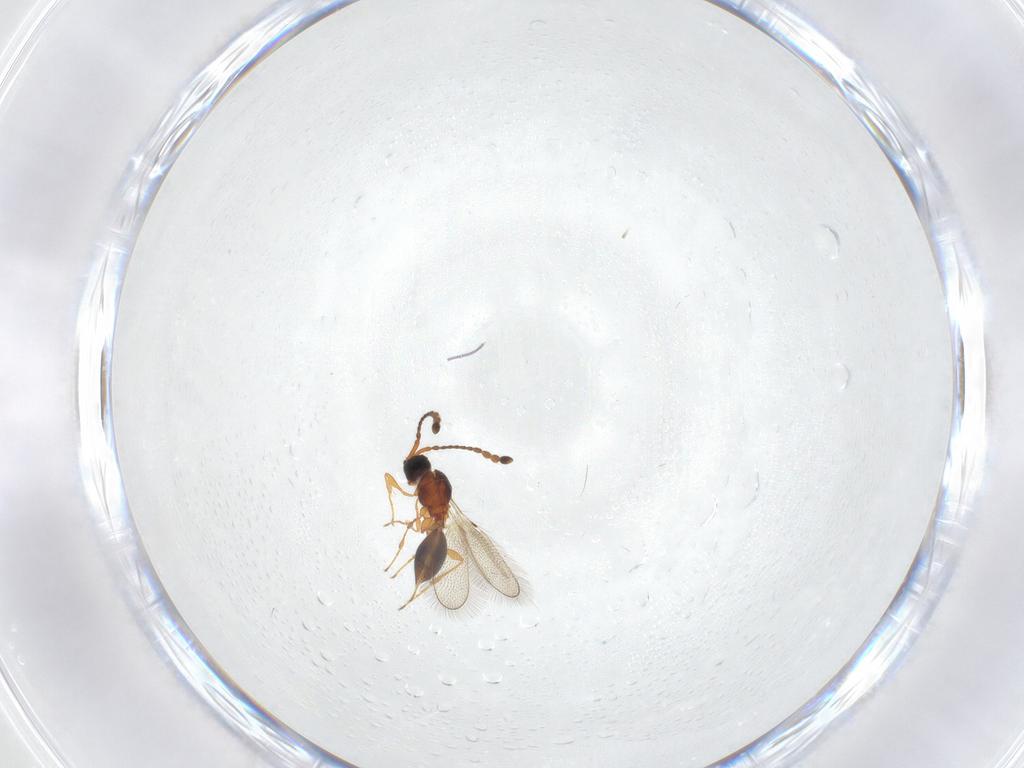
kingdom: Animalia
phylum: Arthropoda
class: Insecta
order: Hymenoptera
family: Diapriidae
